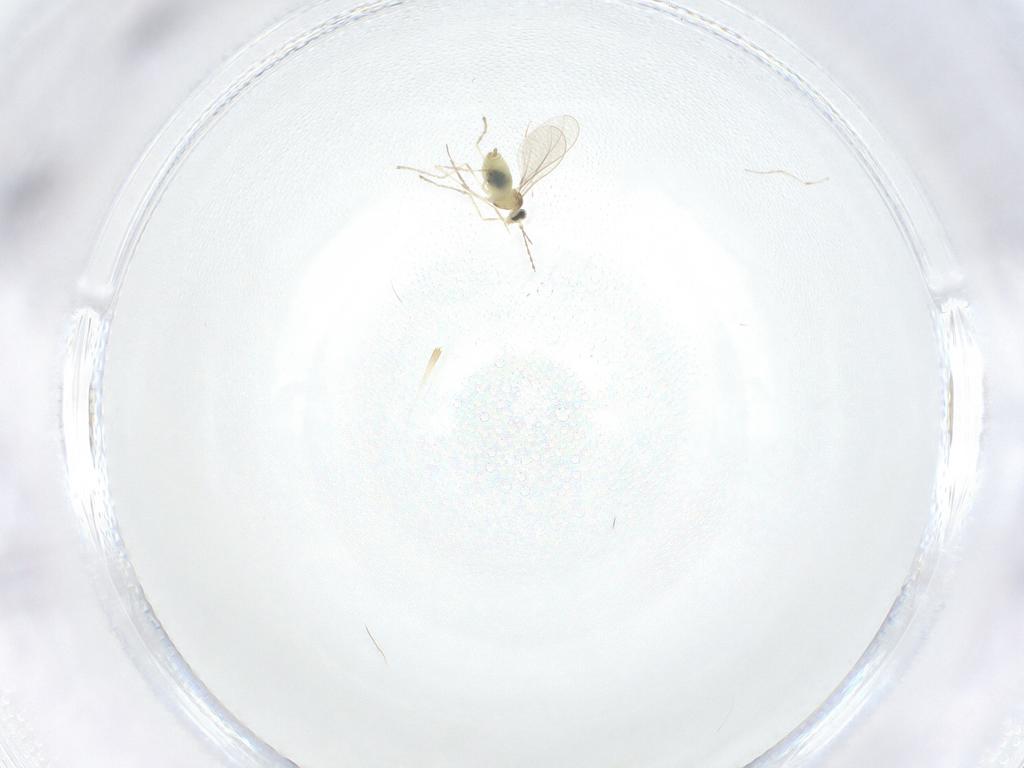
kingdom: Animalia
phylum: Arthropoda
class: Insecta
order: Diptera
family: Cecidomyiidae
